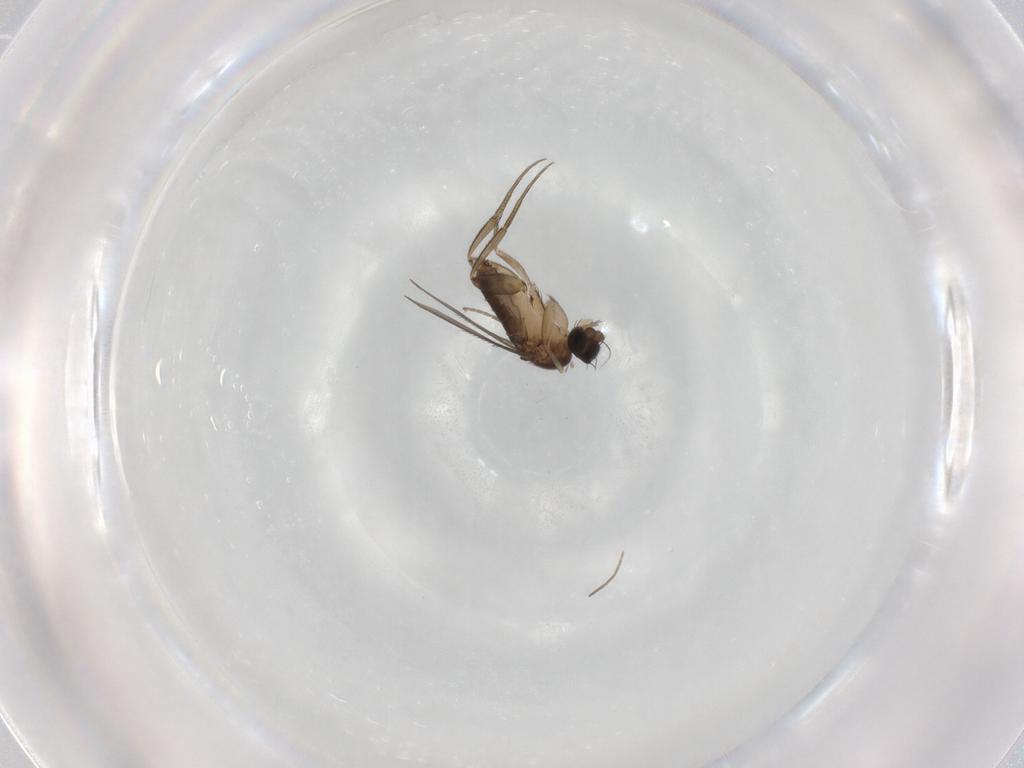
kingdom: Animalia
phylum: Arthropoda
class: Insecta
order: Diptera
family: Phoridae
